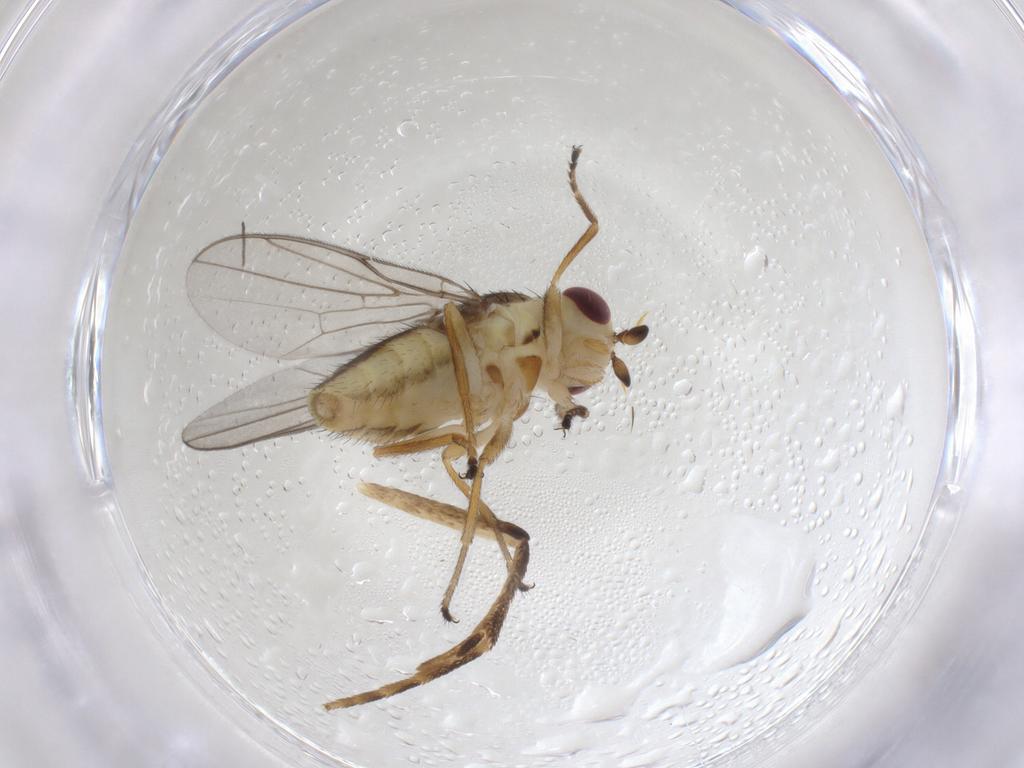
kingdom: Animalia
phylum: Arthropoda
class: Insecta
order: Diptera
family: Chloropidae
